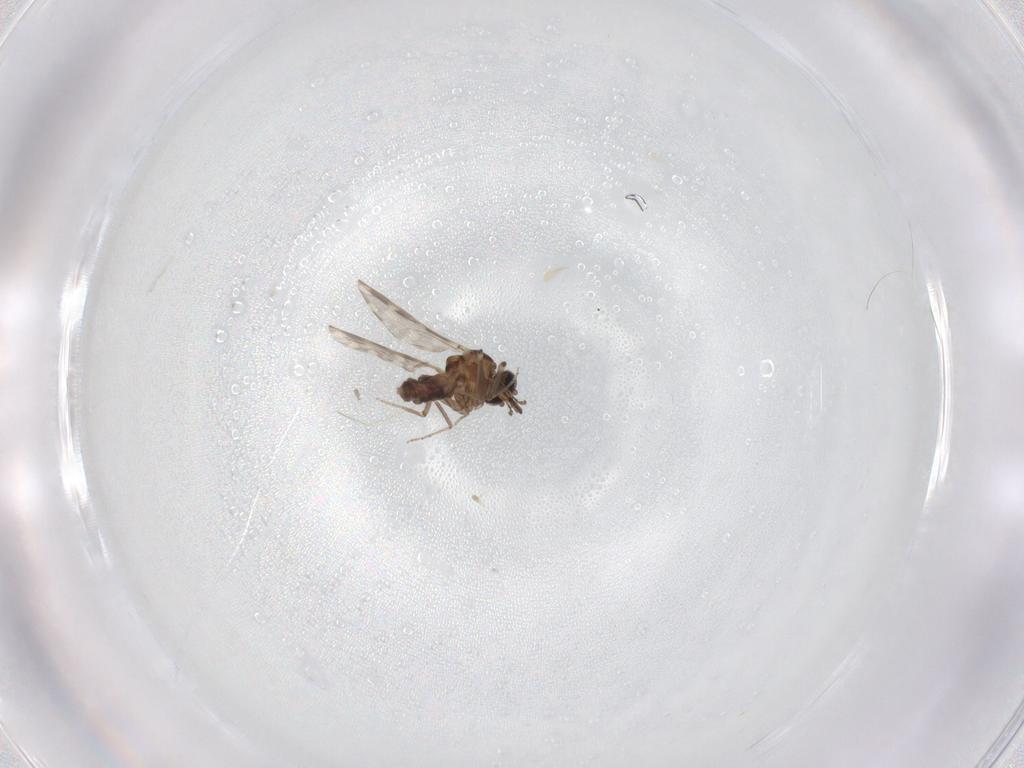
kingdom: Animalia
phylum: Arthropoda
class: Insecta
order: Diptera
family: Ceratopogonidae
